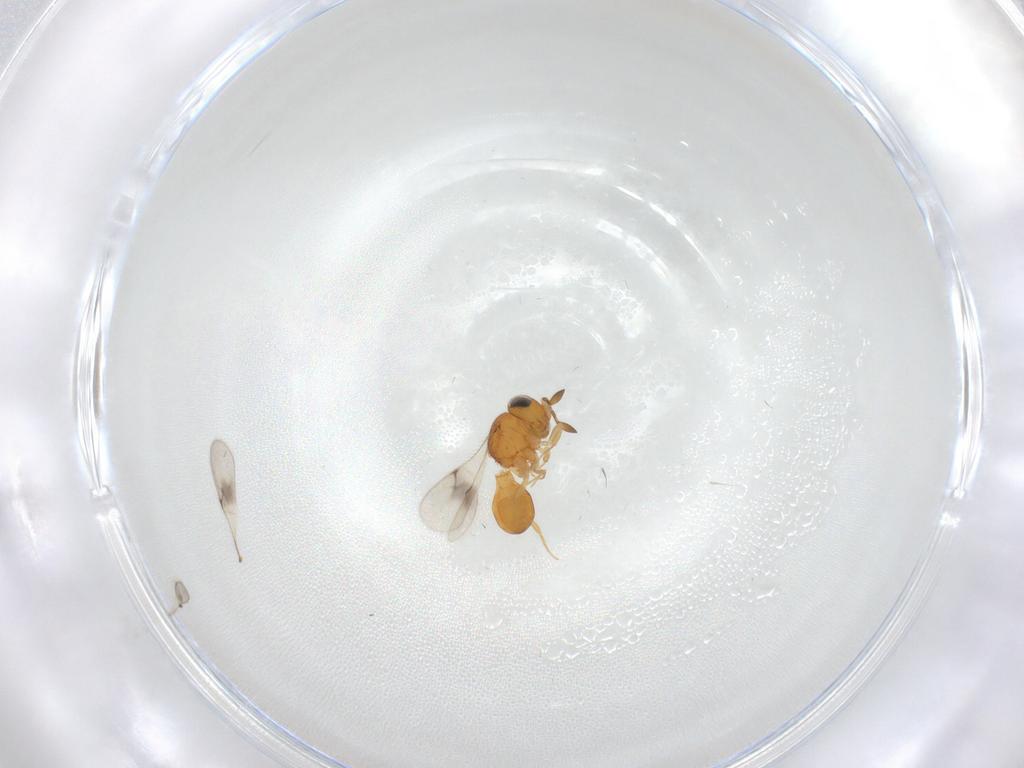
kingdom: Animalia
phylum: Arthropoda
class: Insecta
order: Hymenoptera
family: Scelionidae
